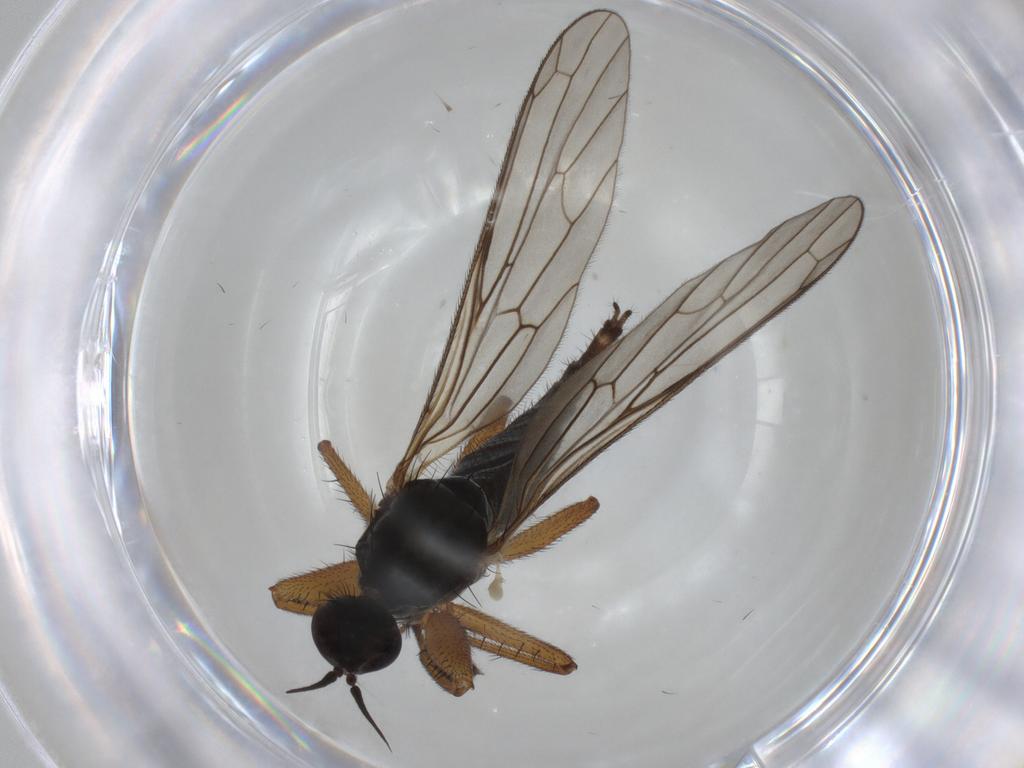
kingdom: Animalia
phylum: Arthropoda
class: Insecta
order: Diptera
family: Empididae
